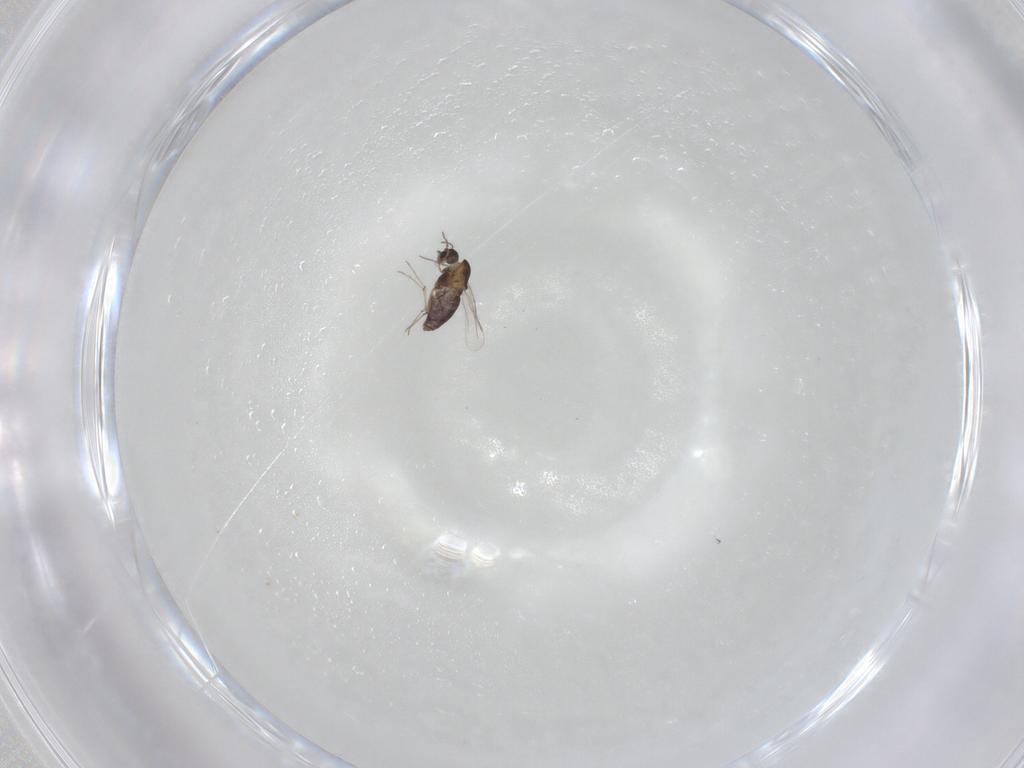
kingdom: Animalia
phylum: Arthropoda
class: Insecta
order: Diptera
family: Chironomidae
